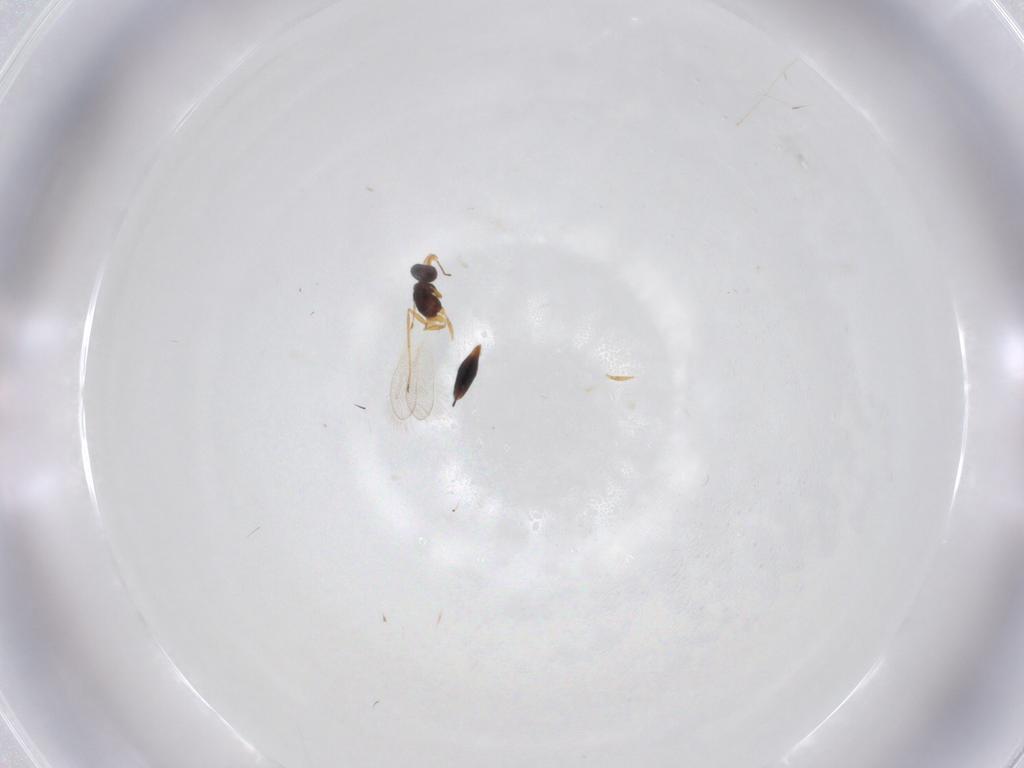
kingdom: Animalia
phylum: Arthropoda
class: Insecta
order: Hymenoptera
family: Mymaridae
